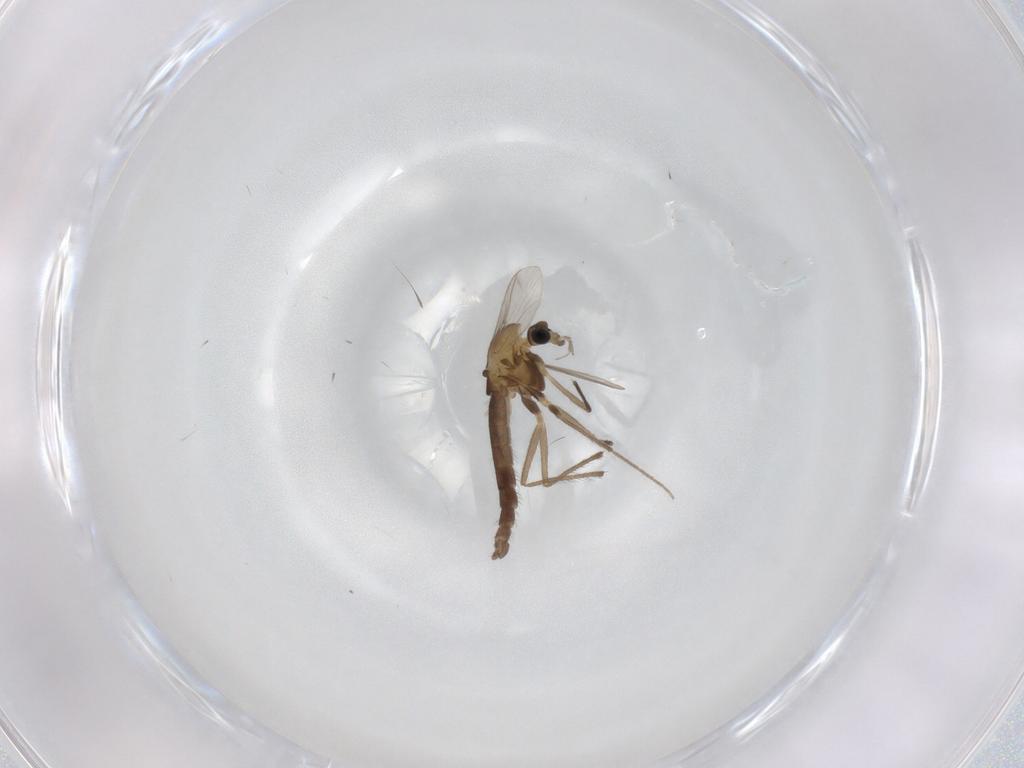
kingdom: Animalia
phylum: Arthropoda
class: Insecta
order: Diptera
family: Chironomidae
